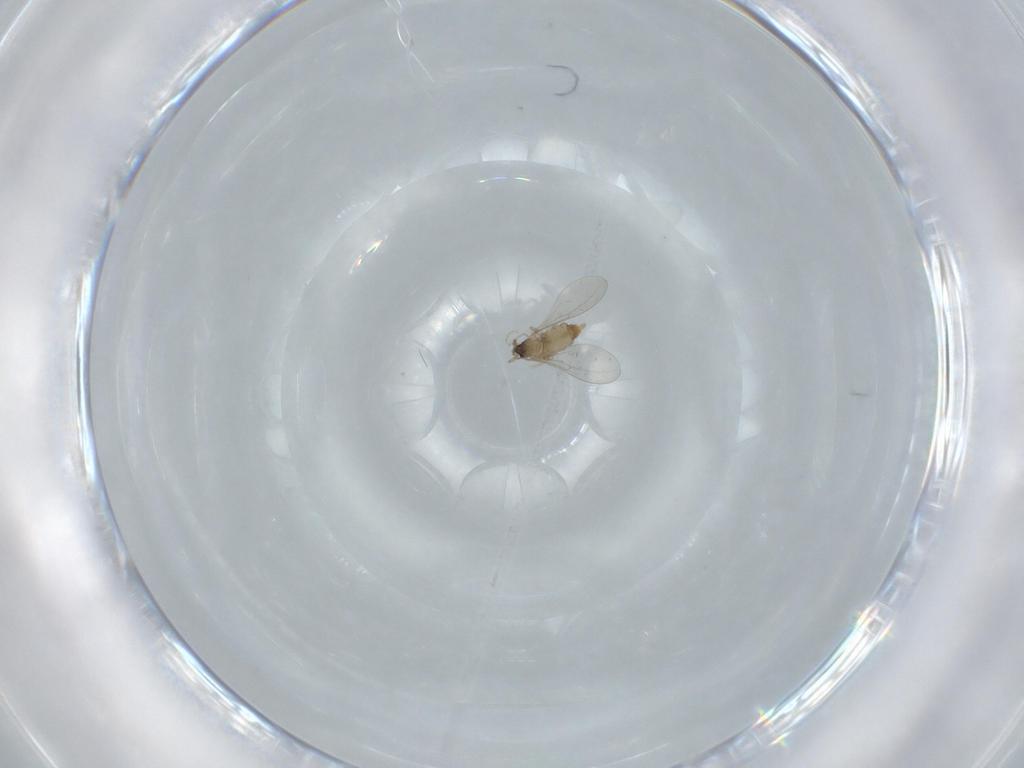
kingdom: Animalia
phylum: Arthropoda
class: Insecta
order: Diptera
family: Cecidomyiidae
